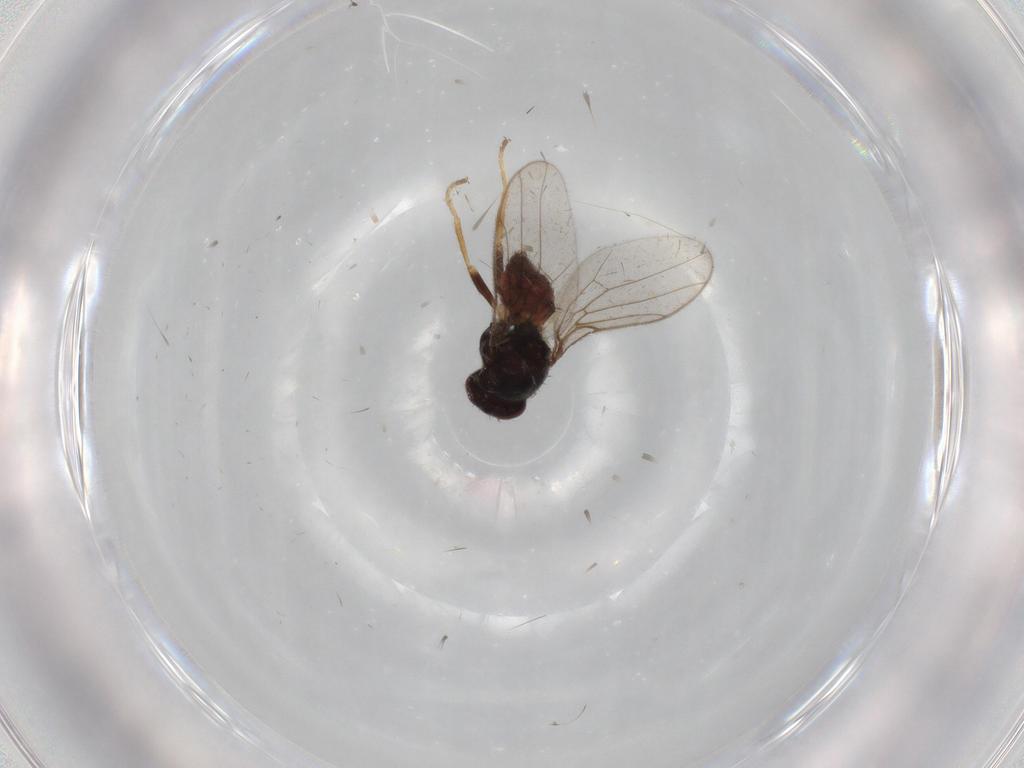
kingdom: Animalia
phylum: Arthropoda
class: Insecta
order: Diptera
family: Chloropidae
